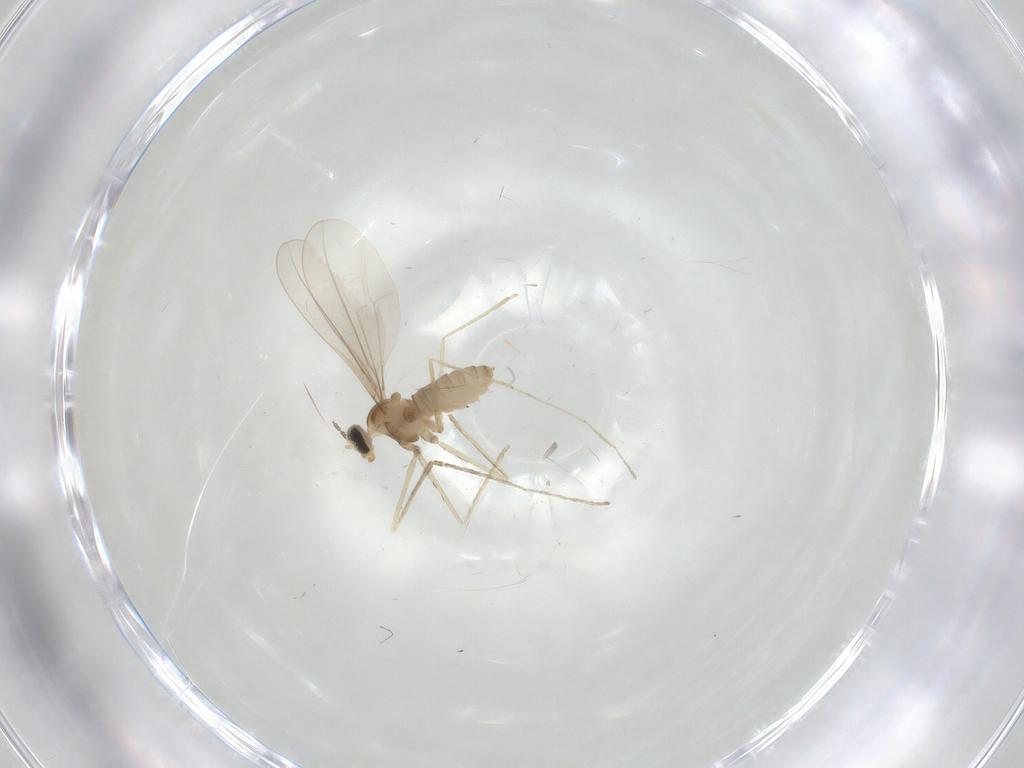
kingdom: Animalia
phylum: Arthropoda
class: Insecta
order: Diptera
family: Cecidomyiidae
